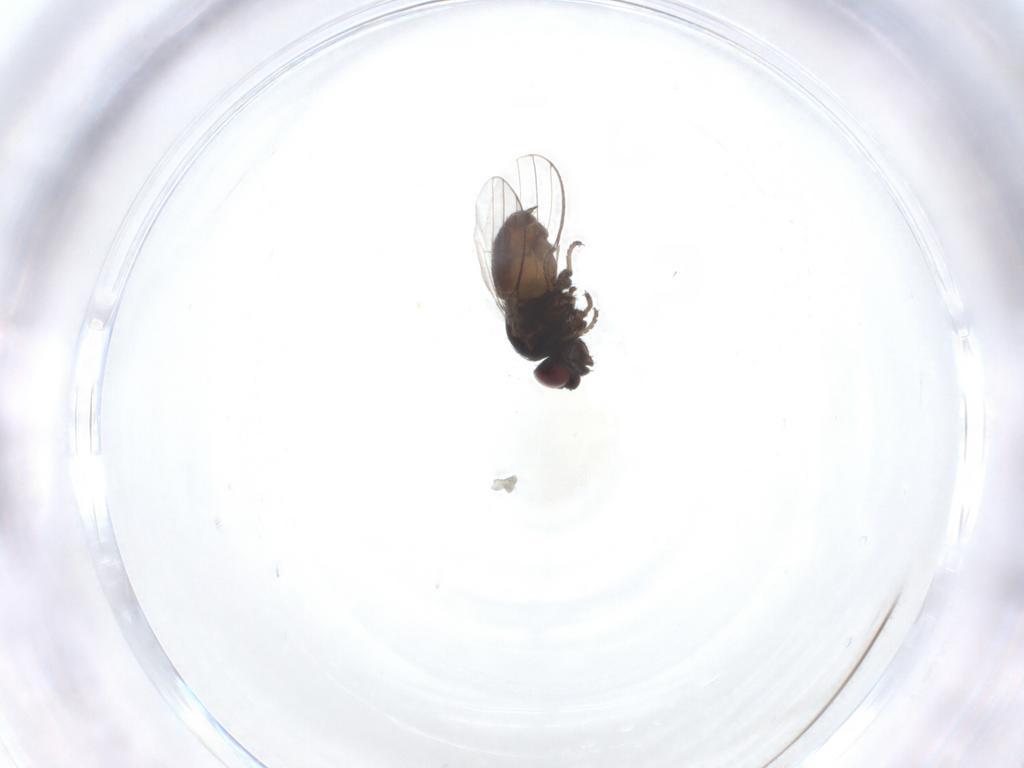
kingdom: Animalia
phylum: Arthropoda
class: Insecta
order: Diptera
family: Milichiidae
